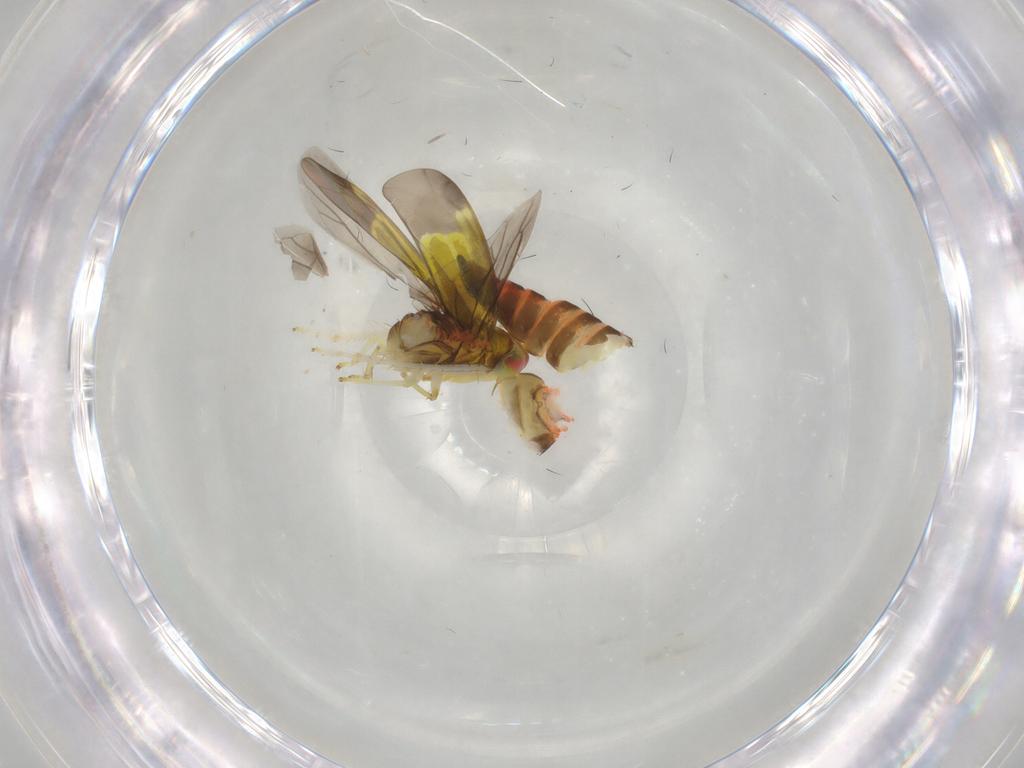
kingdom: Animalia
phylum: Arthropoda
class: Insecta
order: Hemiptera
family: Cicadellidae
